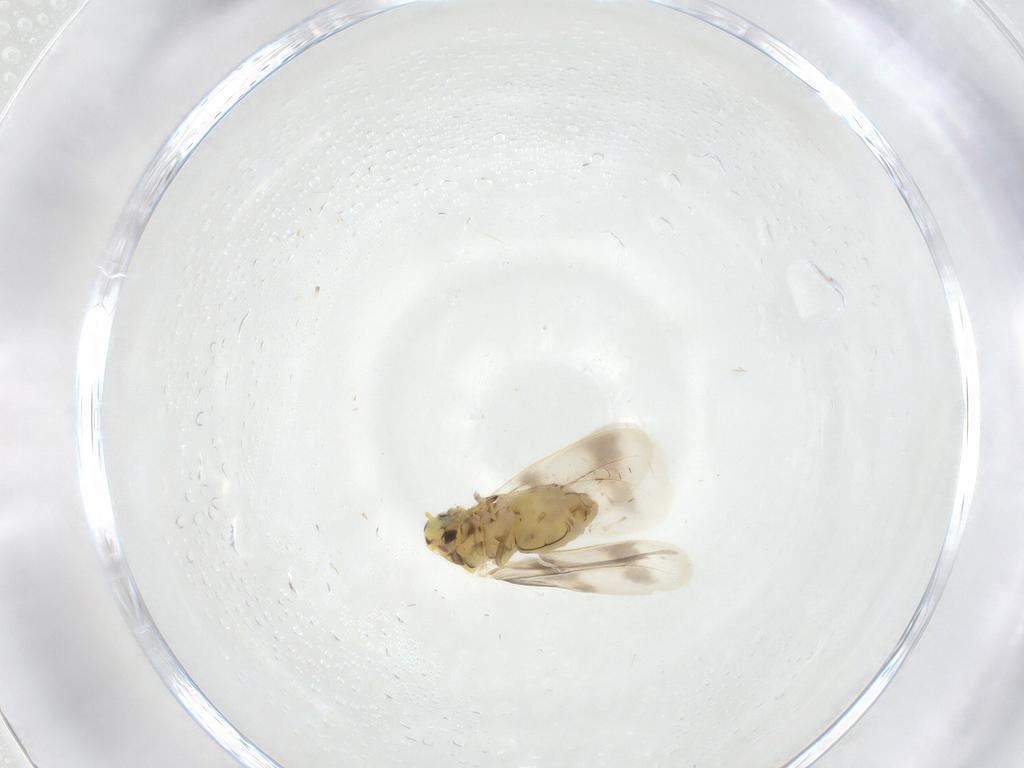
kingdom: Animalia
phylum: Arthropoda
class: Insecta
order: Hemiptera
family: Aleyrodidae
